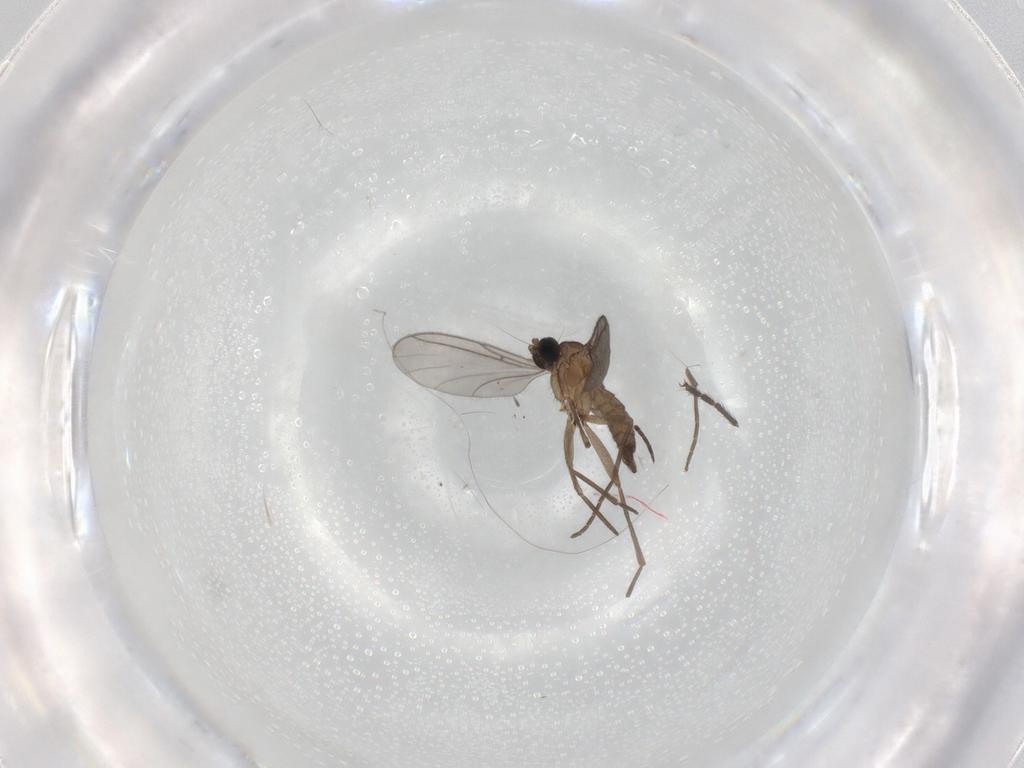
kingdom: Animalia
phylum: Arthropoda
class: Insecta
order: Diptera
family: Limoniidae
